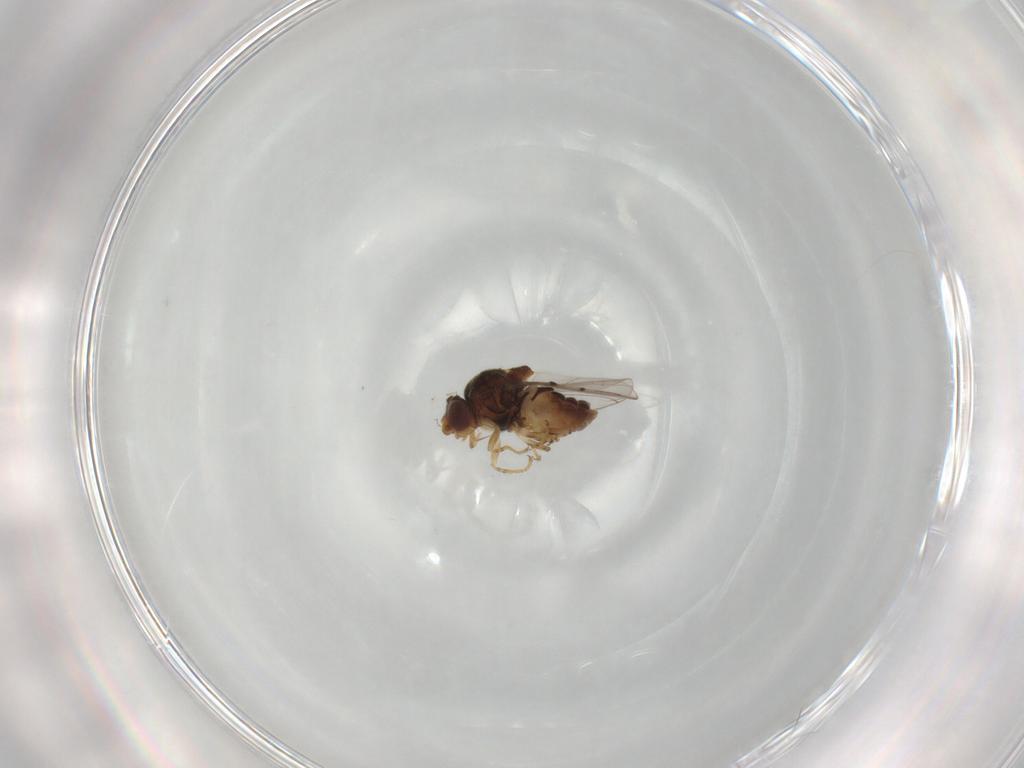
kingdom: Animalia
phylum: Arthropoda
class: Insecta
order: Diptera
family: Chloropidae
